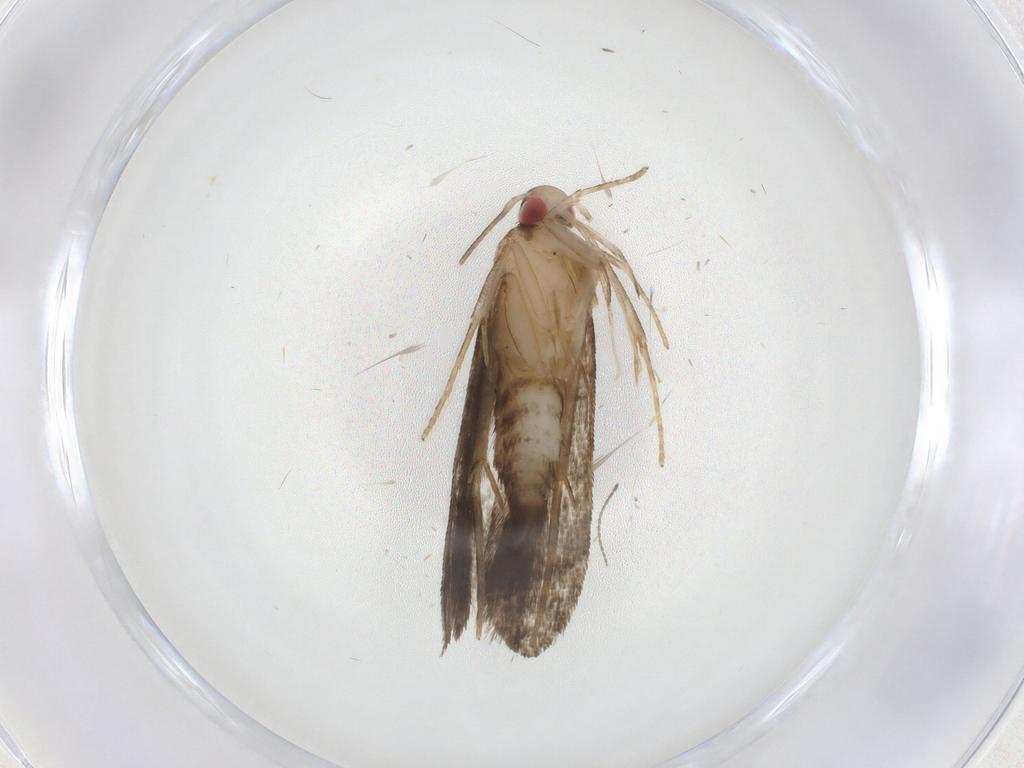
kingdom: Animalia
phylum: Arthropoda
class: Insecta
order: Lepidoptera
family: Gelechiidae
